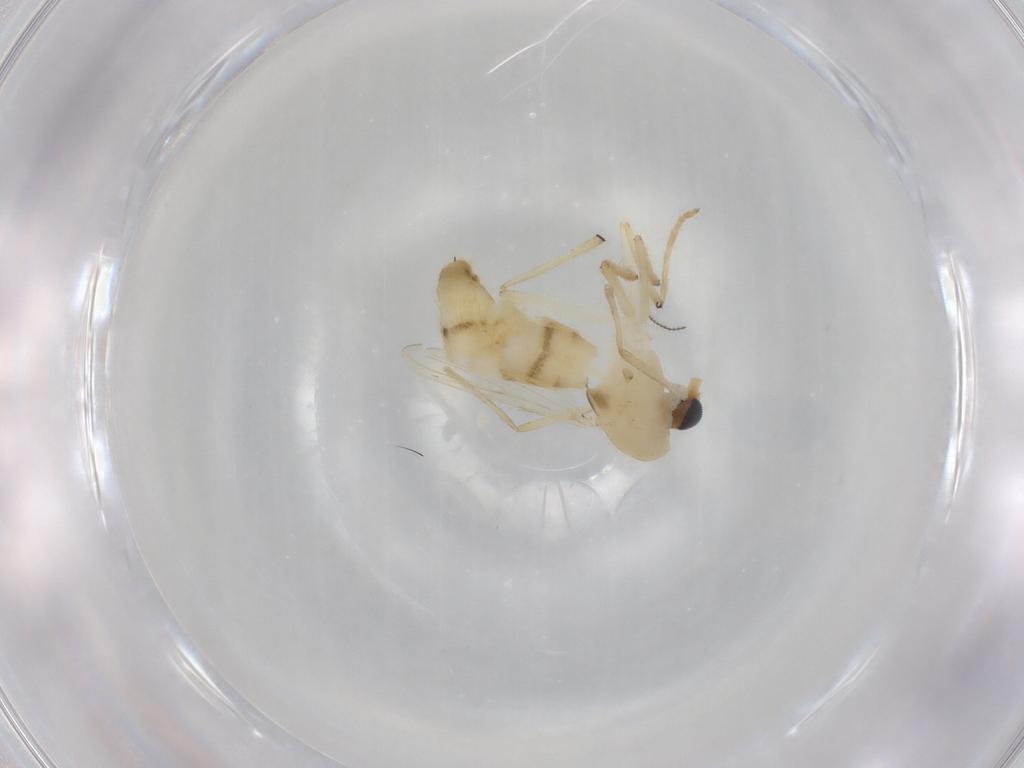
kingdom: Animalia
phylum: Arthropoda
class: Insecta
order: Diptera
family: Chironomidae
